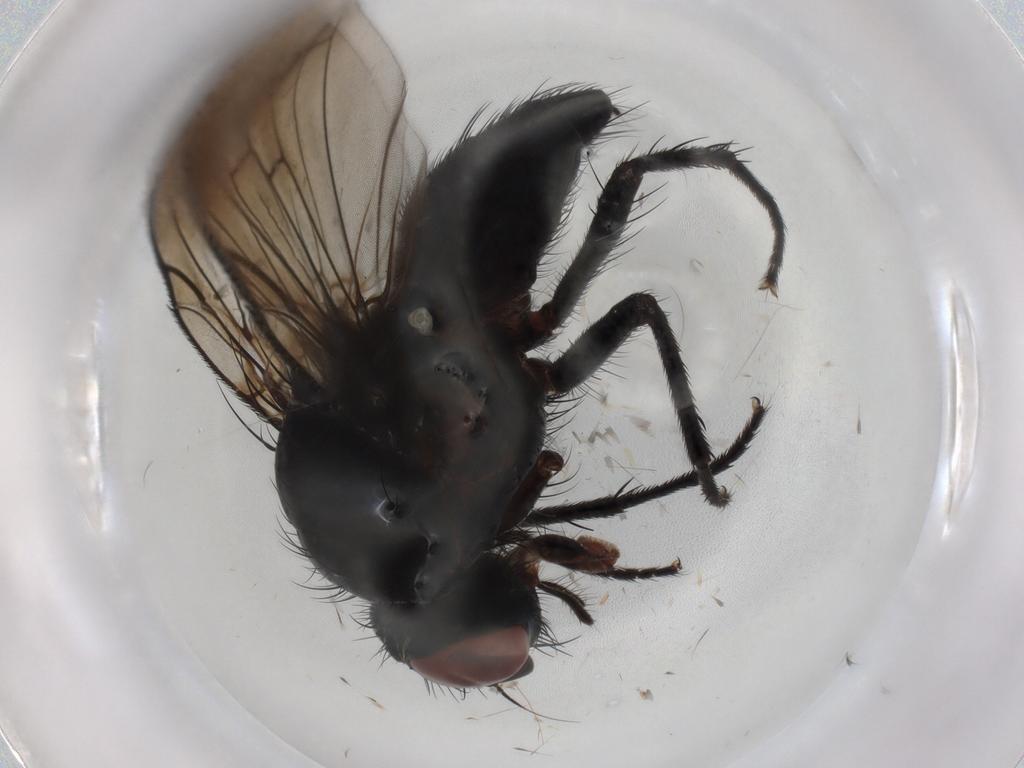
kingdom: Animalia
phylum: Arthropoda
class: Insecta
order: Diptera
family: Anthomyiidae
